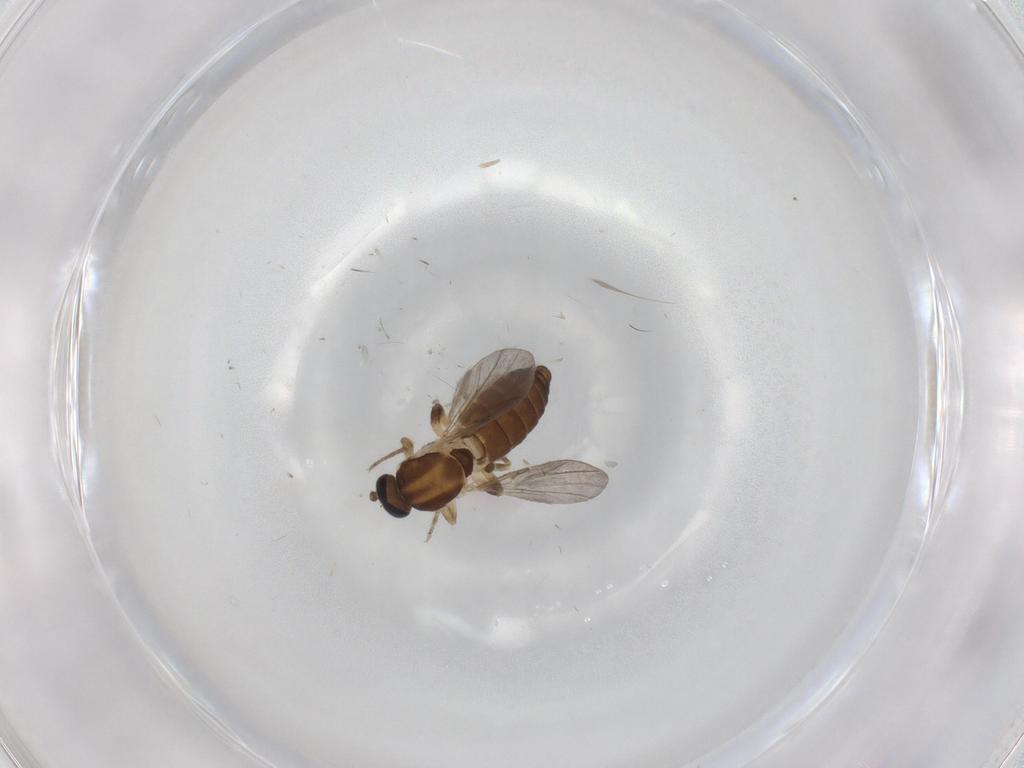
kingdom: Animalia
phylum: Arthropoda
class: Insecta
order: Diptera
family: Ceratopogonidae
